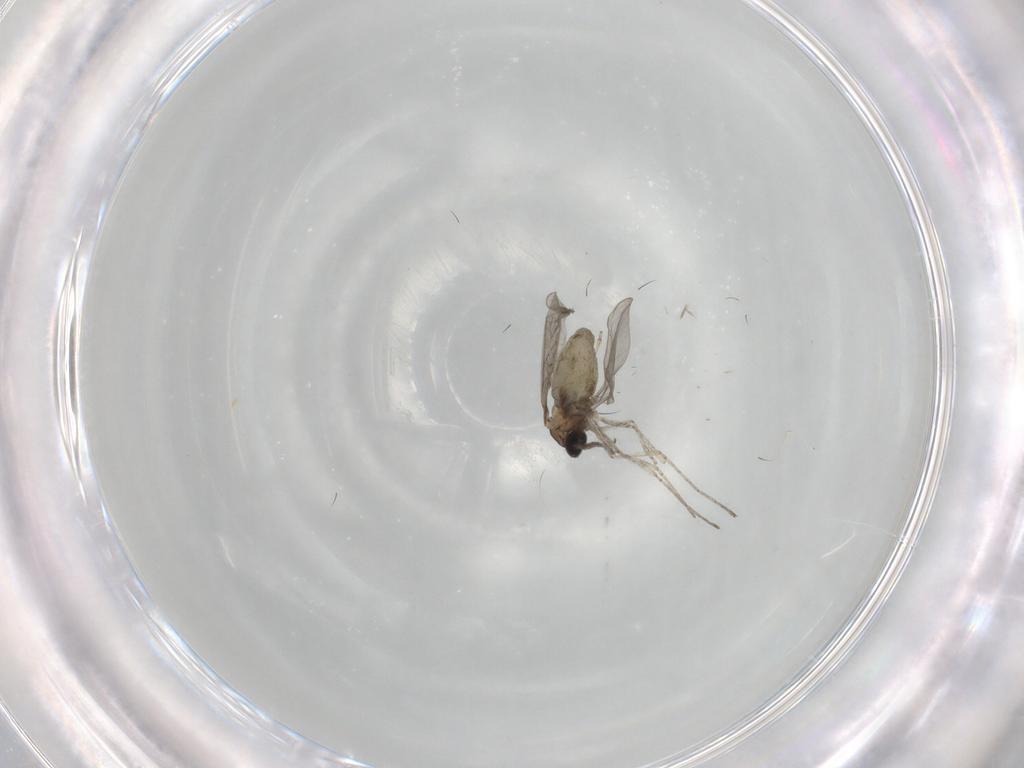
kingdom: Animalia
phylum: Arthropoda
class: Insecta
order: Diptera
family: Cecidomyiidae
